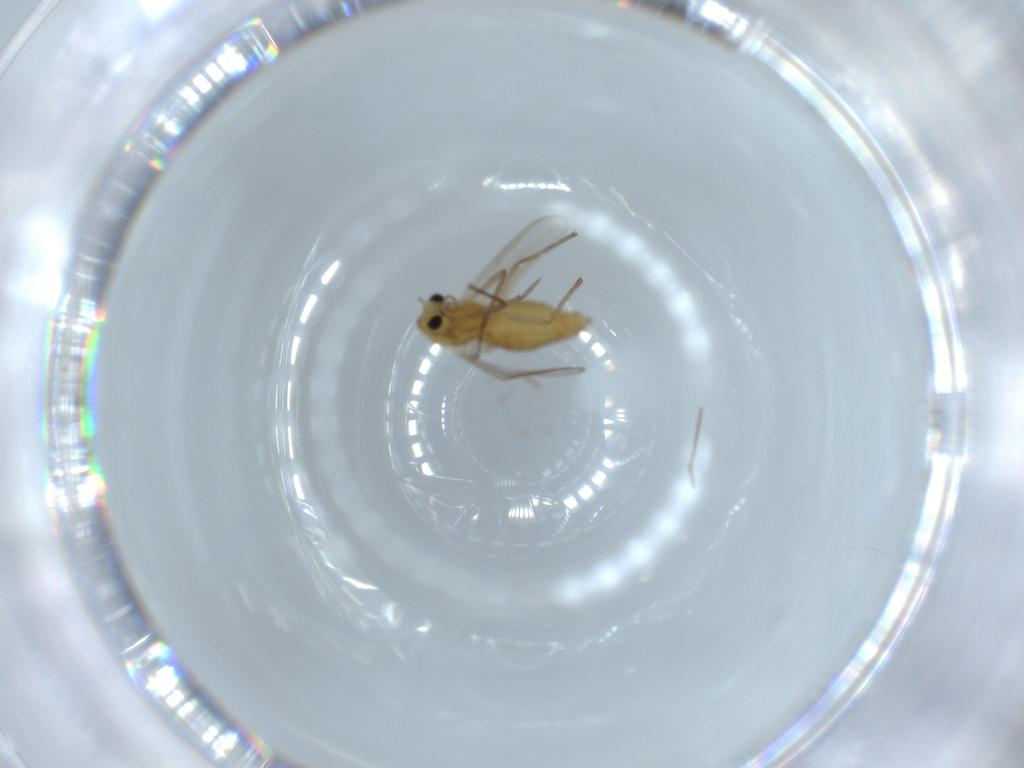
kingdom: Animalia
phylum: Arthropoda
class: Insecta
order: Diptera
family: Chironomidae
